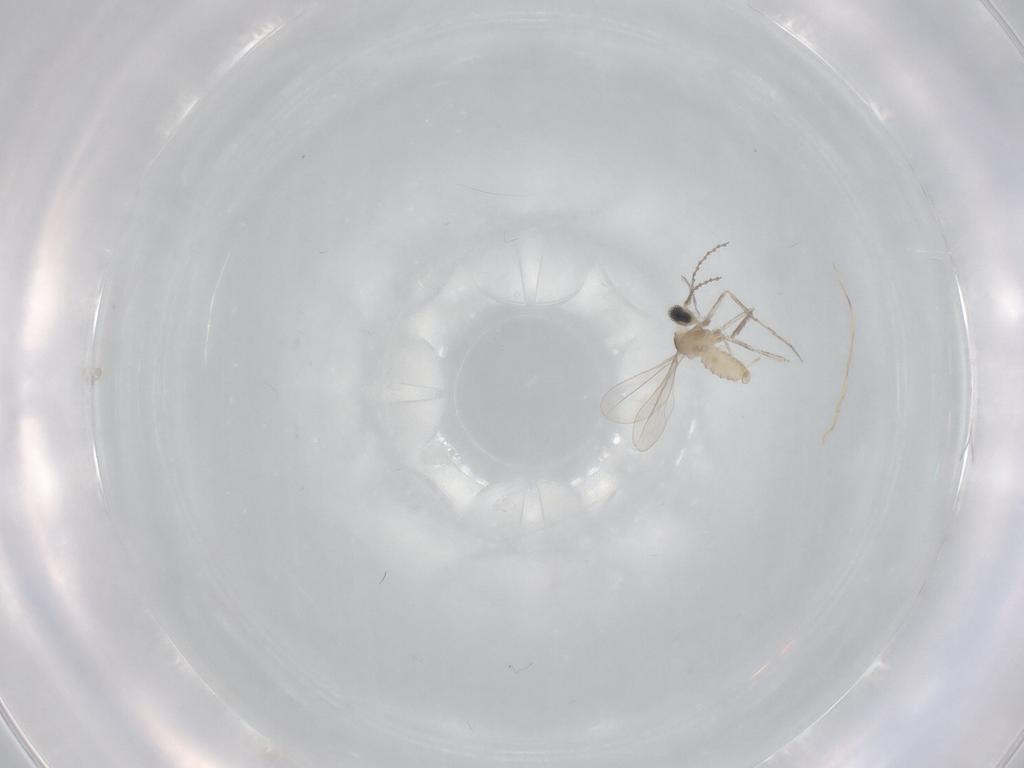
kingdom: Animalia
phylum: Arthropoda
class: Insecta
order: Diptera
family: Cecidomyiidae
